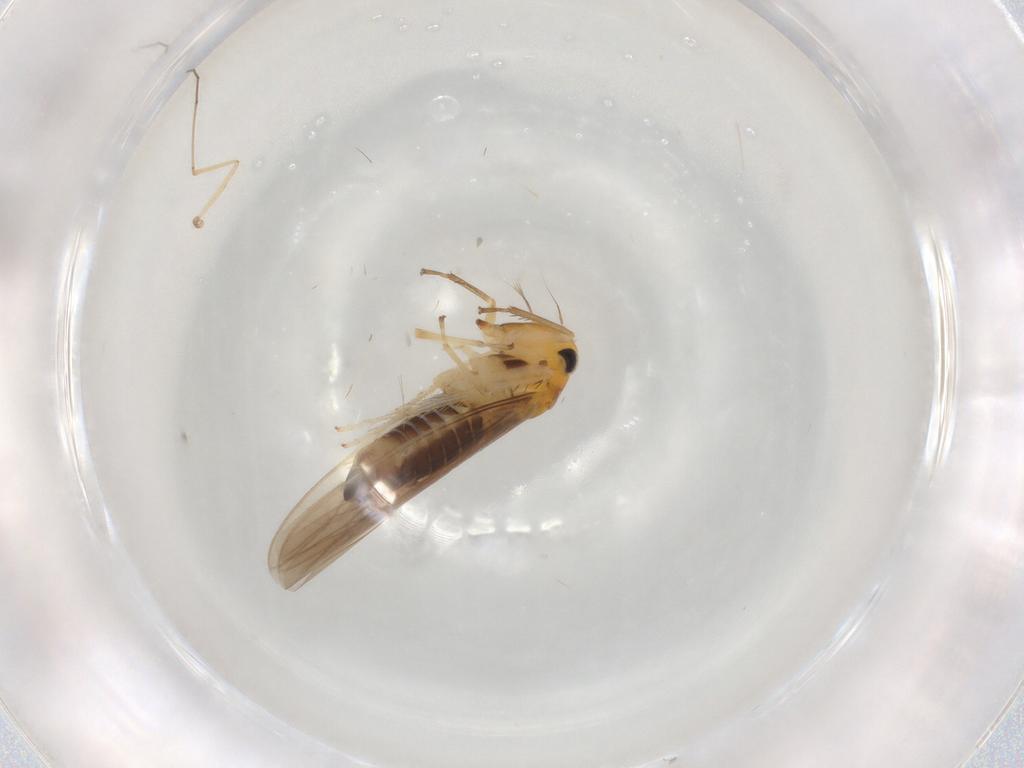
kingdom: Animalia
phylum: Arthropoda
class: Insecta
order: Hemiptera
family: Cicadellidae
